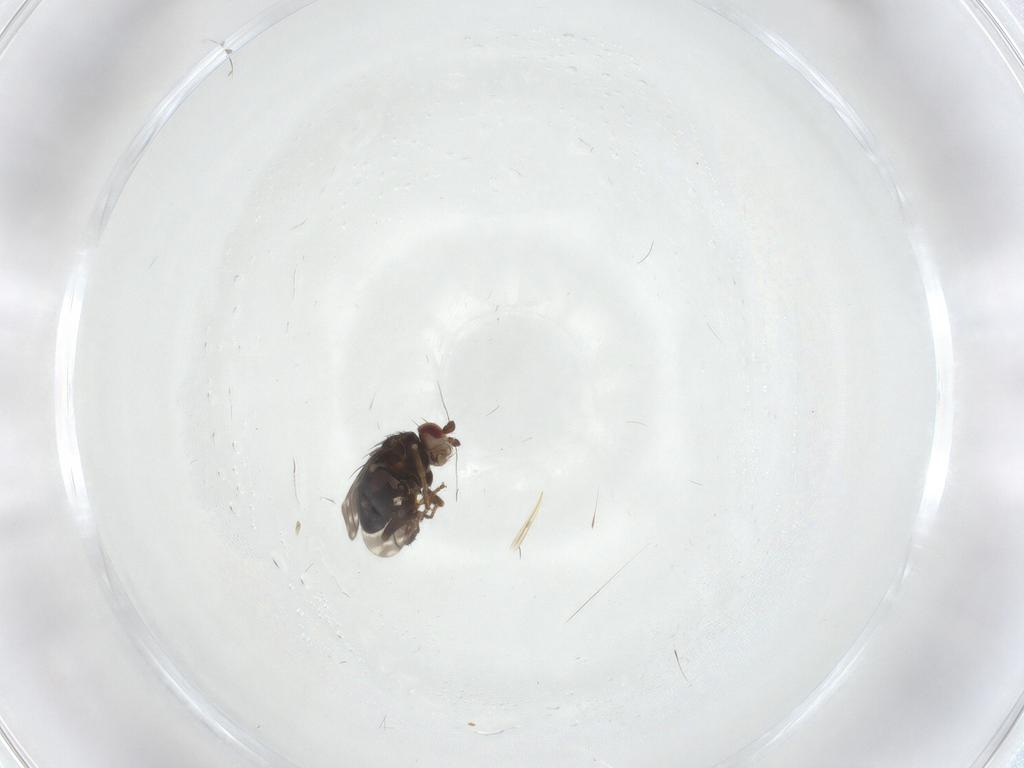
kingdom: Animalia
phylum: Arthropoda
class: Insecta
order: Diptera
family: Sphaeroceridae
